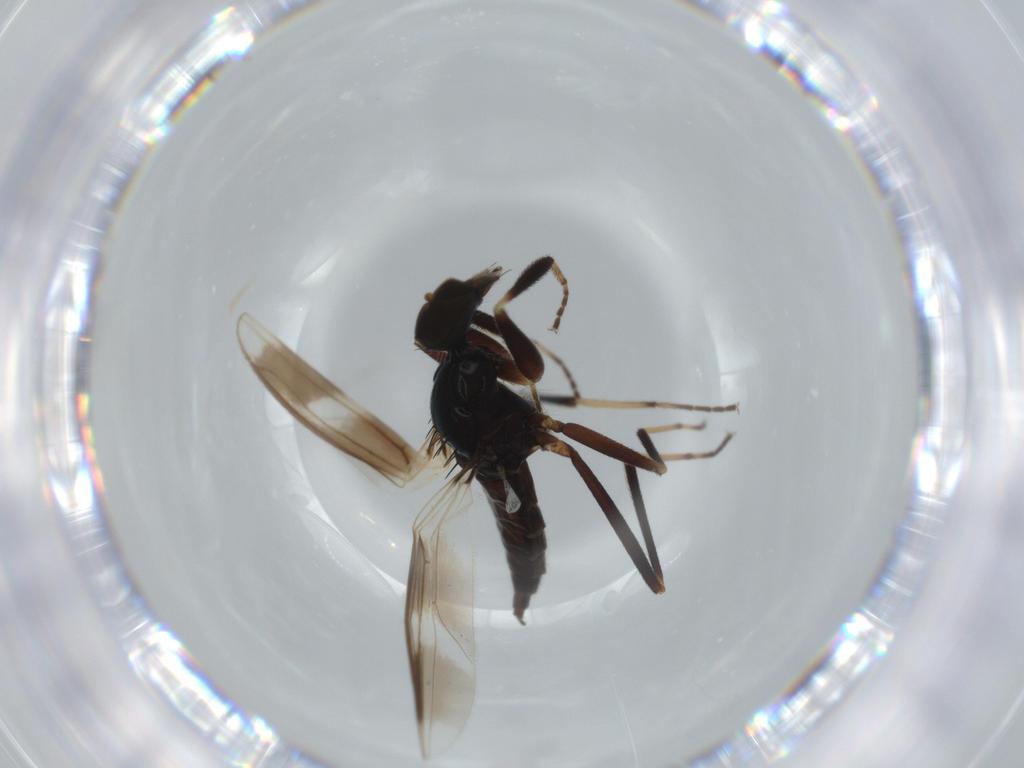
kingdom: Animalia
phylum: Arthropoda
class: Insecta
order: Diptera
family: Hybotidae
